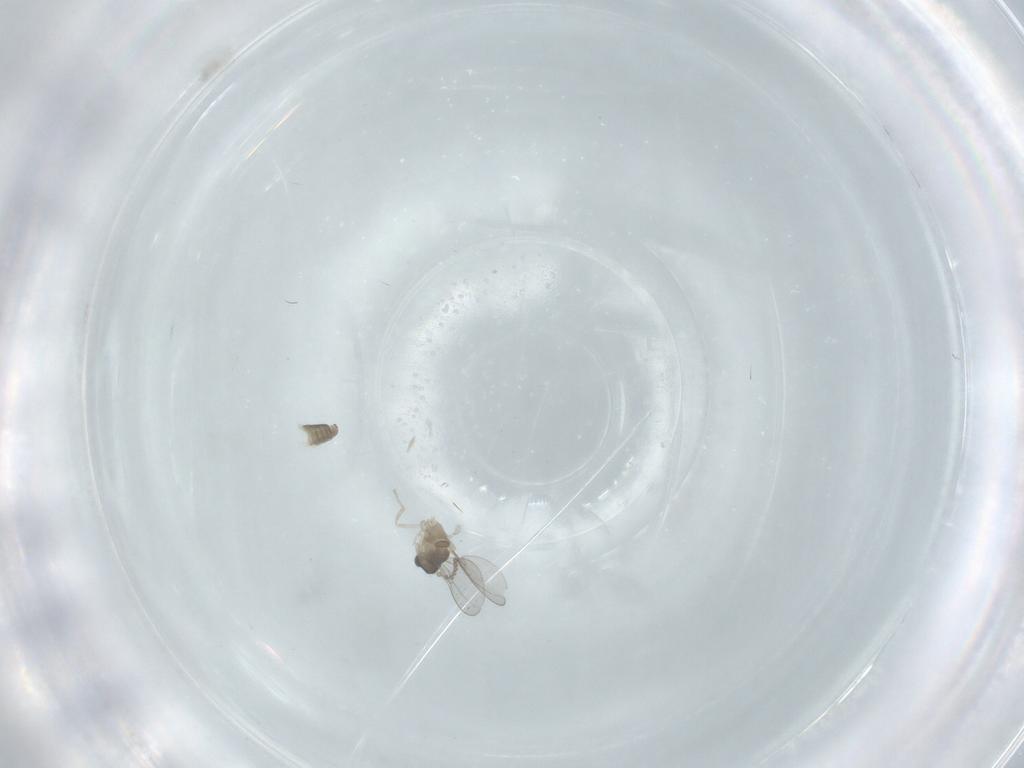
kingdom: Animalia
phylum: Arthropoda
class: Insecta
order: Diptera
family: Cecidomyiidae
